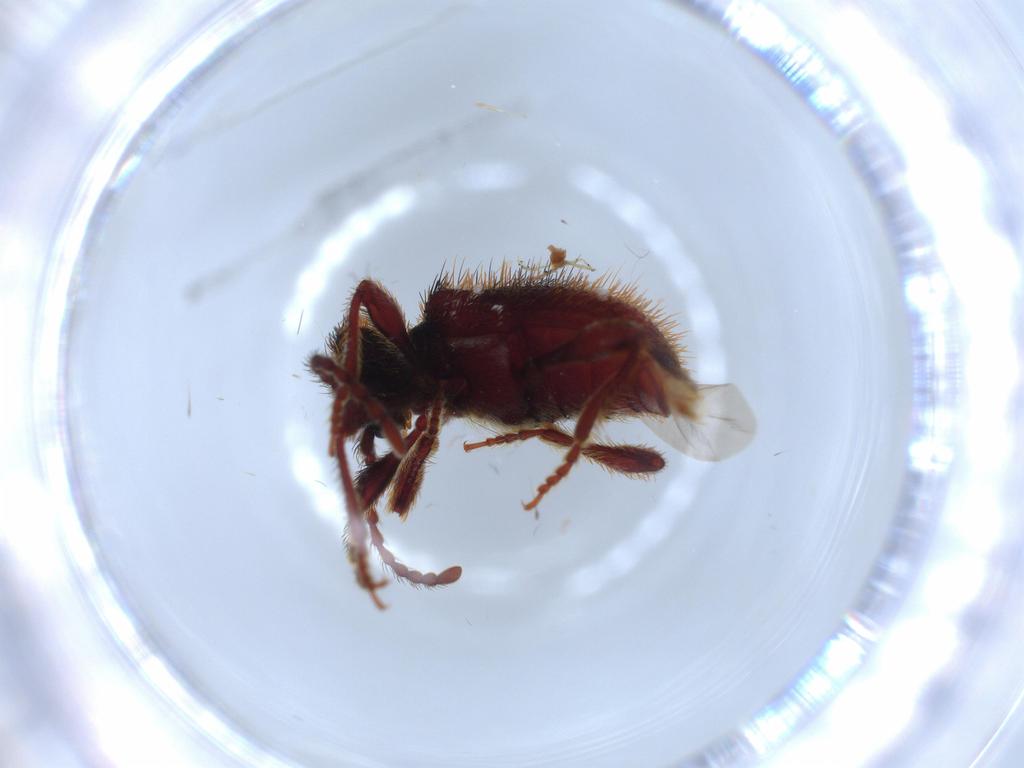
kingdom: Animalia
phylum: Arthropoda
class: Insecta
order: Coleoptera
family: Ptinidae
